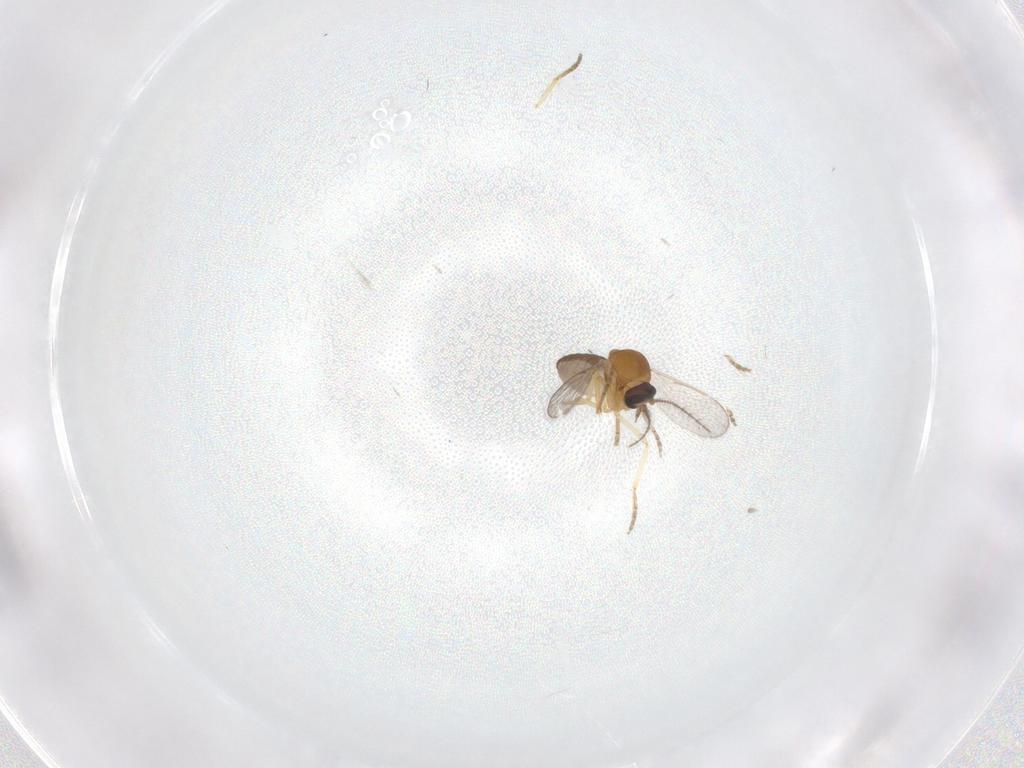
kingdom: Animalia
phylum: Arthropoda
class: Insecta
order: Diptera
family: Ceratopogonidae
